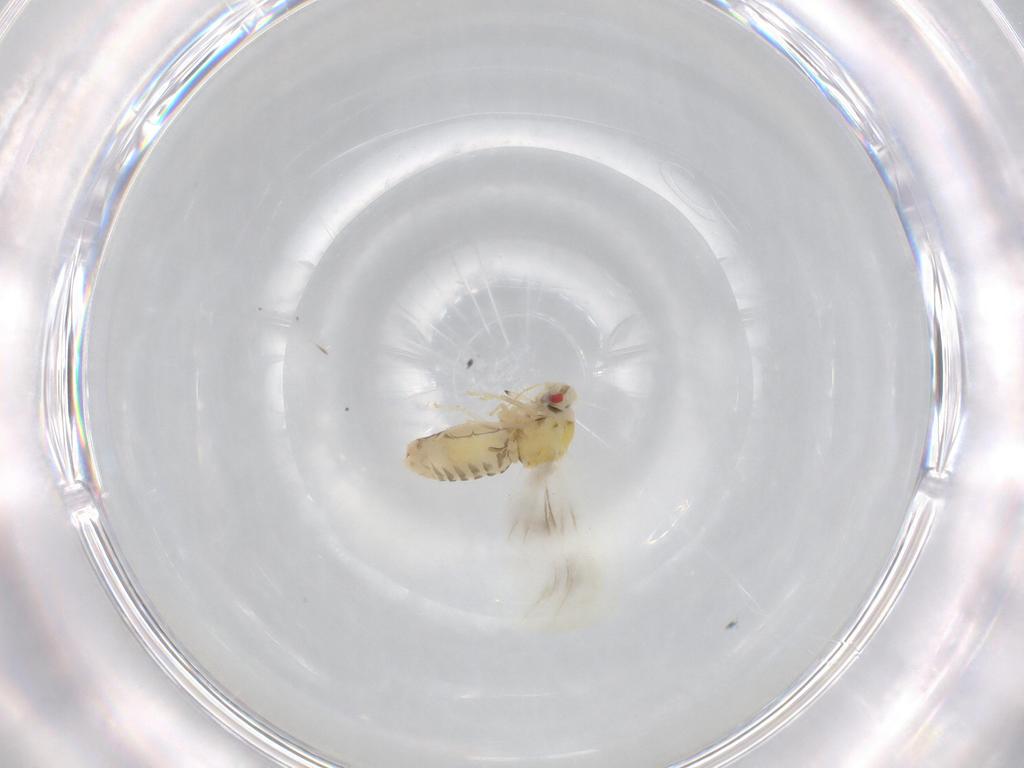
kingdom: Animalia
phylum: Arthropoda
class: Insecta
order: Hemiptera
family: Aleyrodidae
